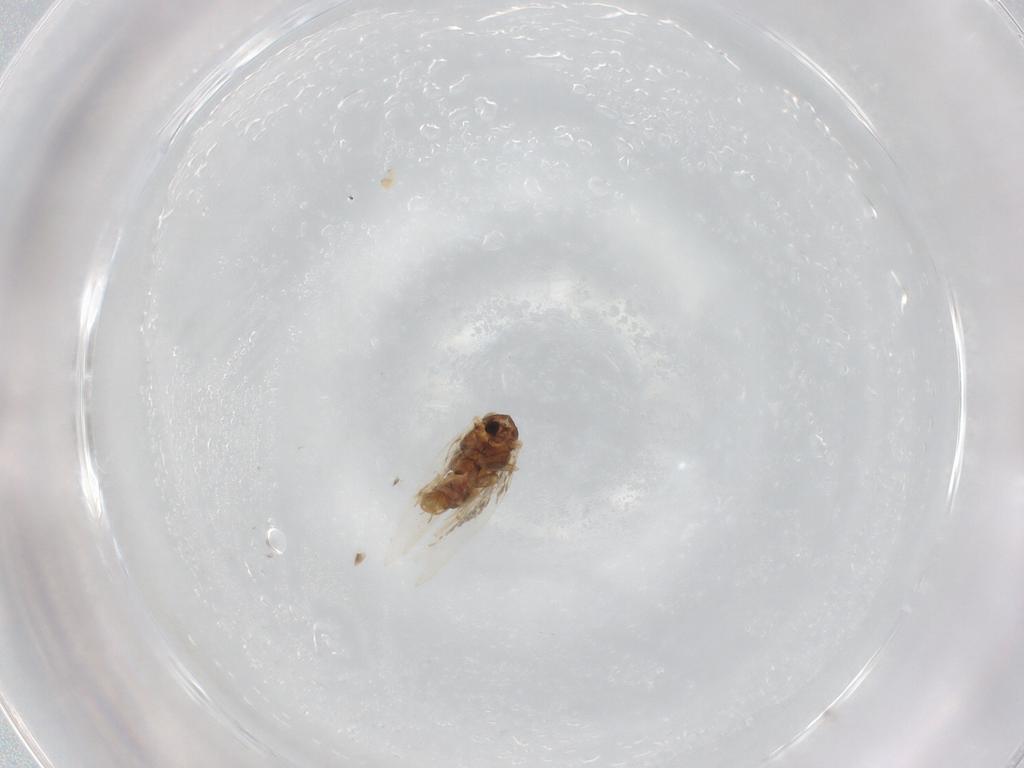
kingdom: Animalia
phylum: Arthropoda
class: Insecta
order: Lepidoptera
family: Nepticulidae
